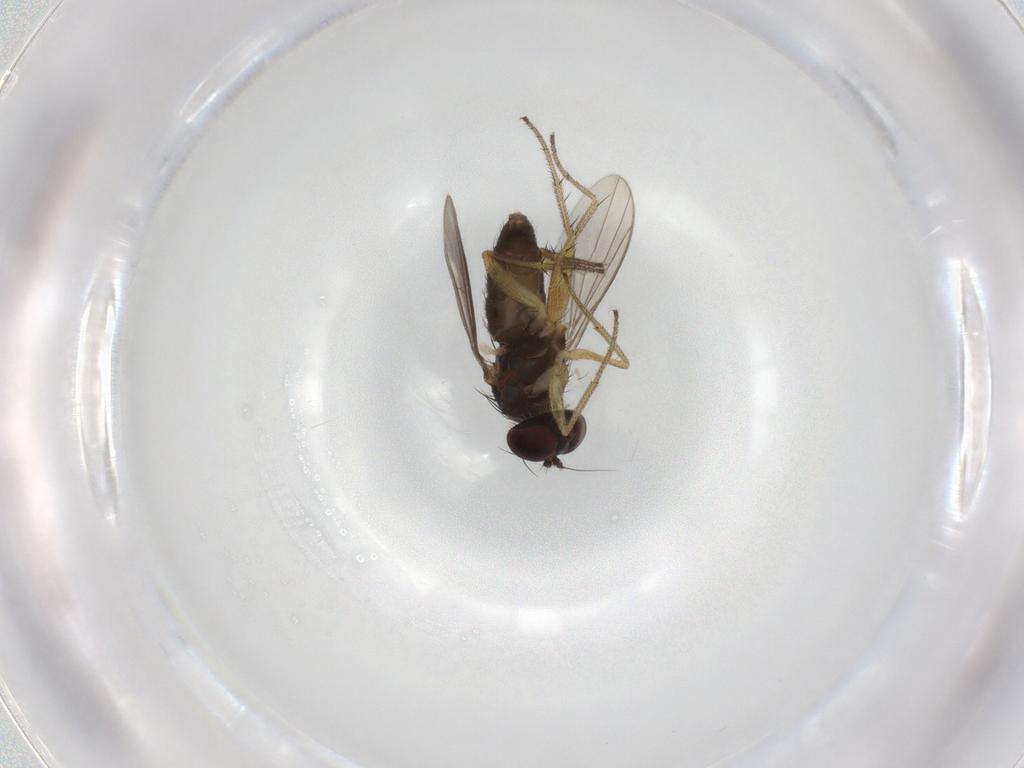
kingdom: Animalia
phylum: Arthropoda
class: Insecta
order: Diptera
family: Dolichopodidae
